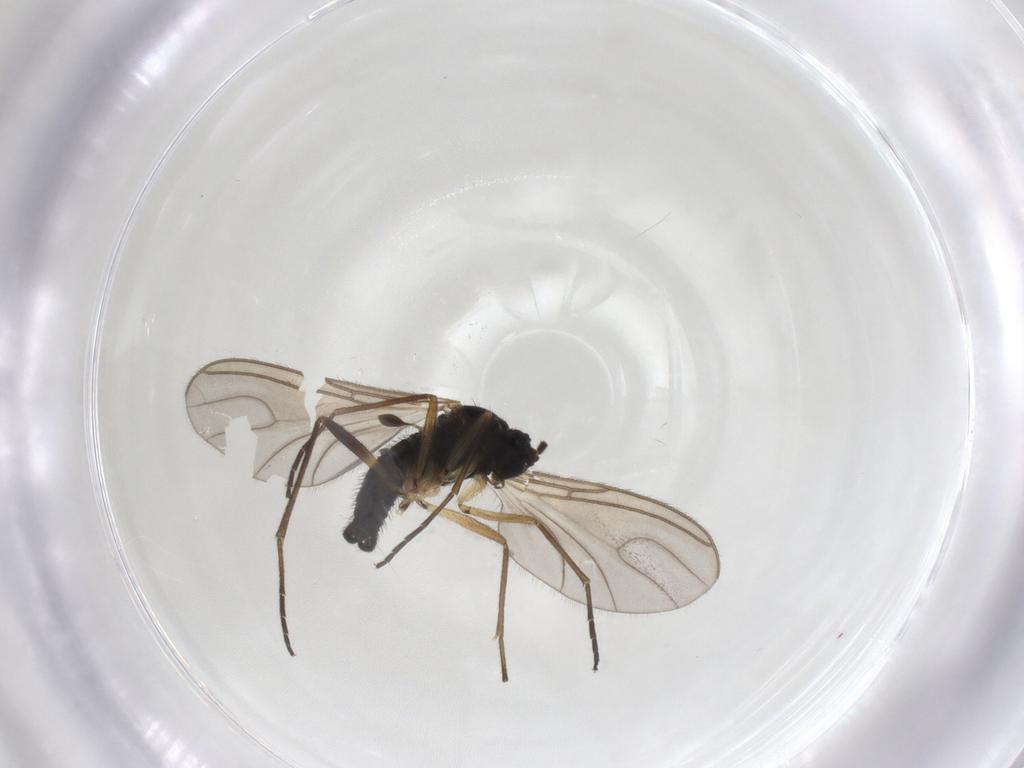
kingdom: Animalia
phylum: Arthropoda
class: Insecta
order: Diptera
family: Sciaridae
